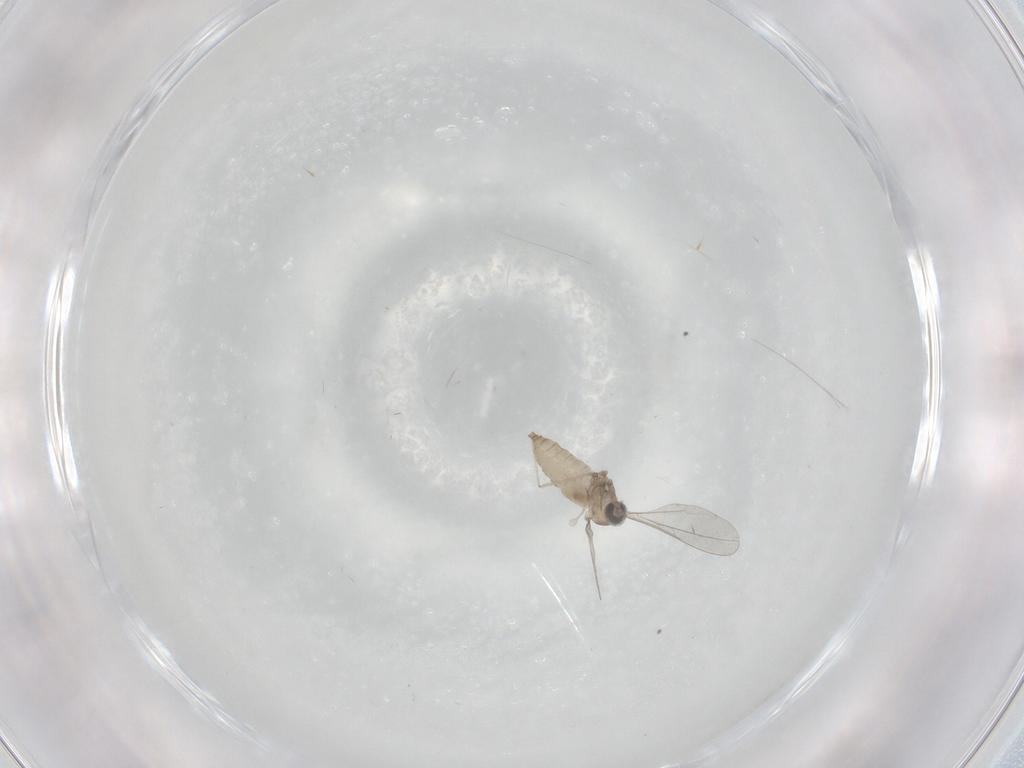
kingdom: Animalia
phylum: Arthropoda
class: Insecta
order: Diptera
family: Cecidomyiidae
